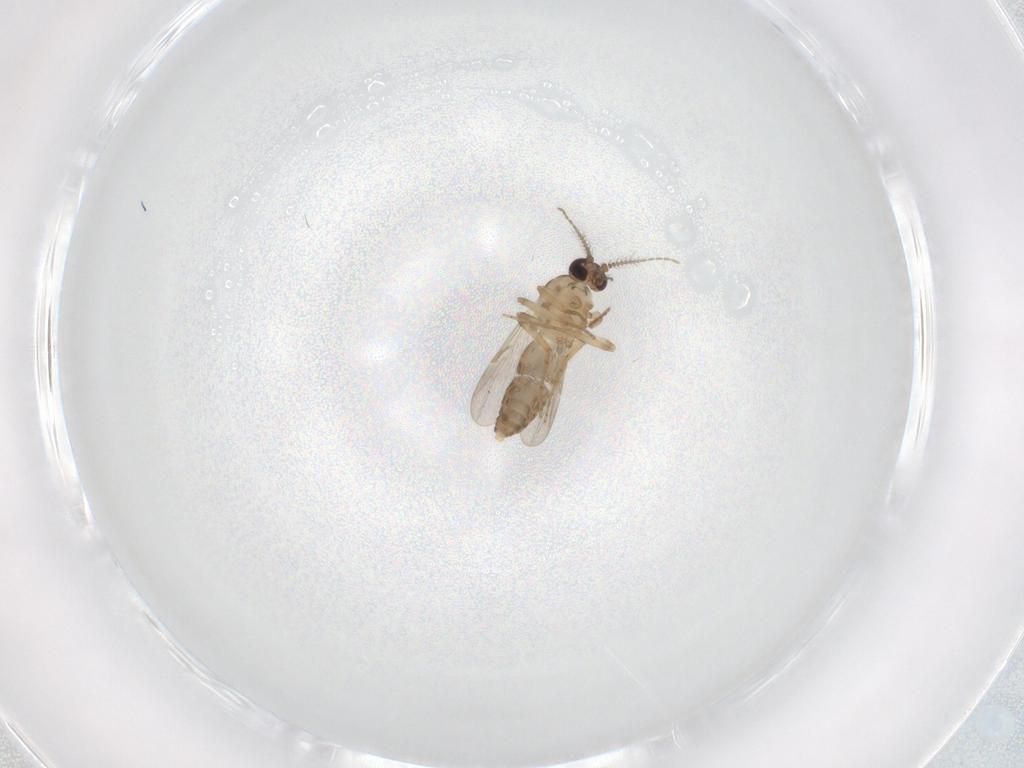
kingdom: Animalia
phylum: Arthropoda
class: Insecta
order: Diptera
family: Ceratopogonidae
